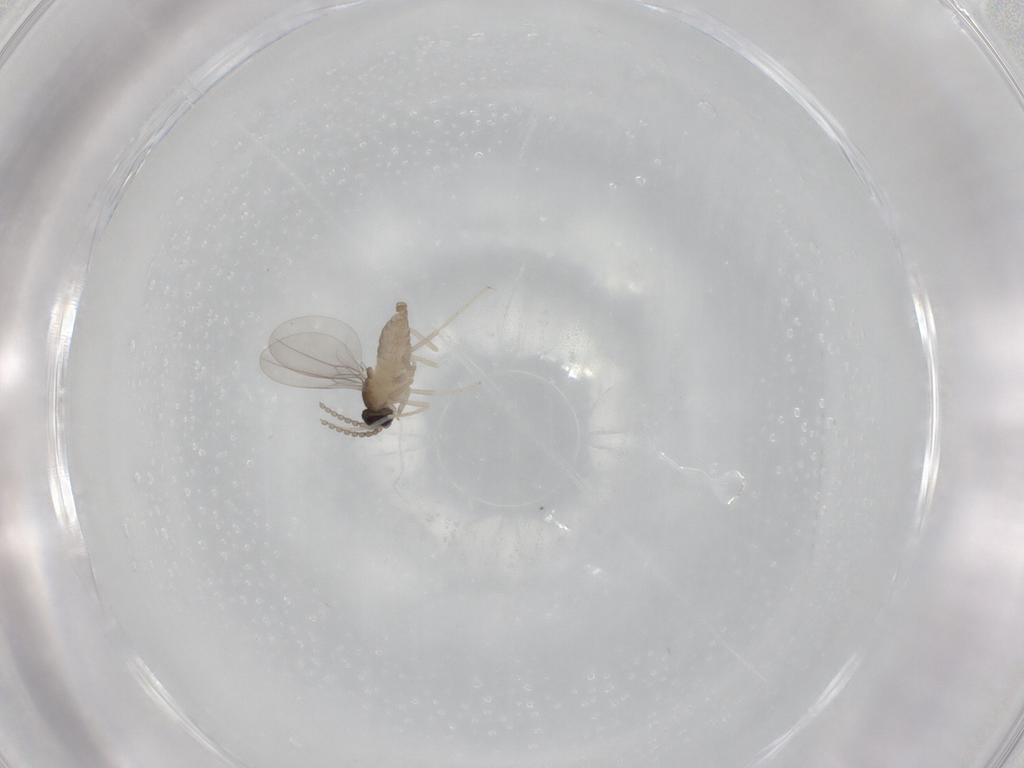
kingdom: Animalia
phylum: Arthropoda
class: Insecta
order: Diptera
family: Cecidomyiidae
